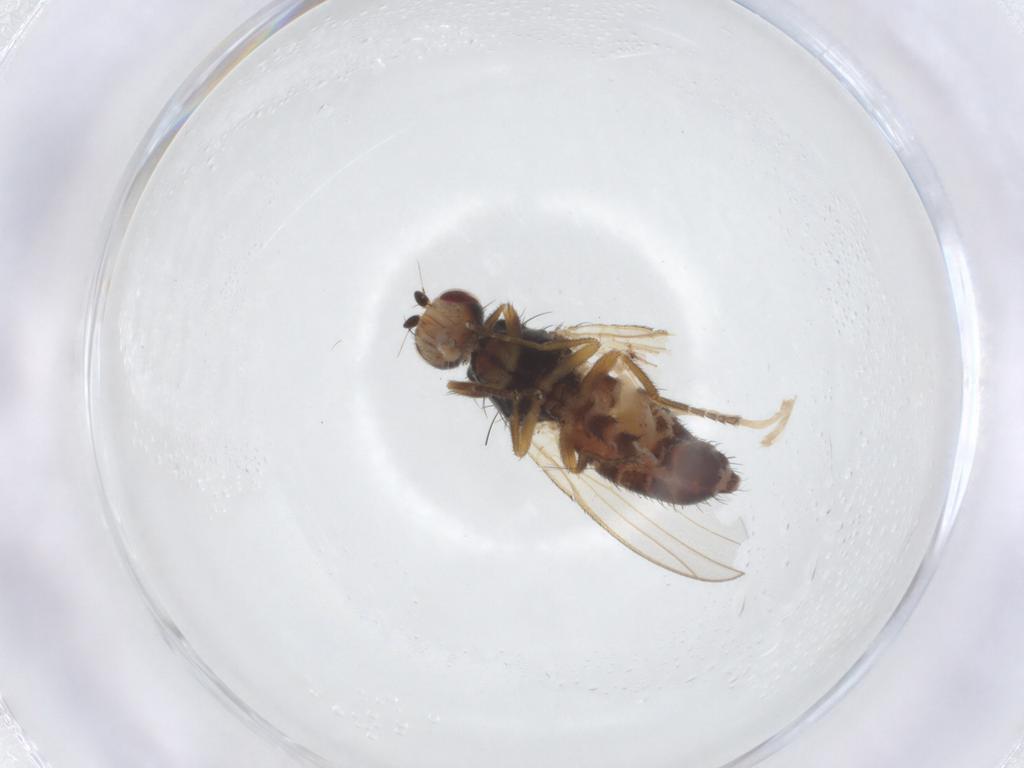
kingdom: Animalia
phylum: Arthropoda
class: Insecta
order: Diptera
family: Heleomyzidae
